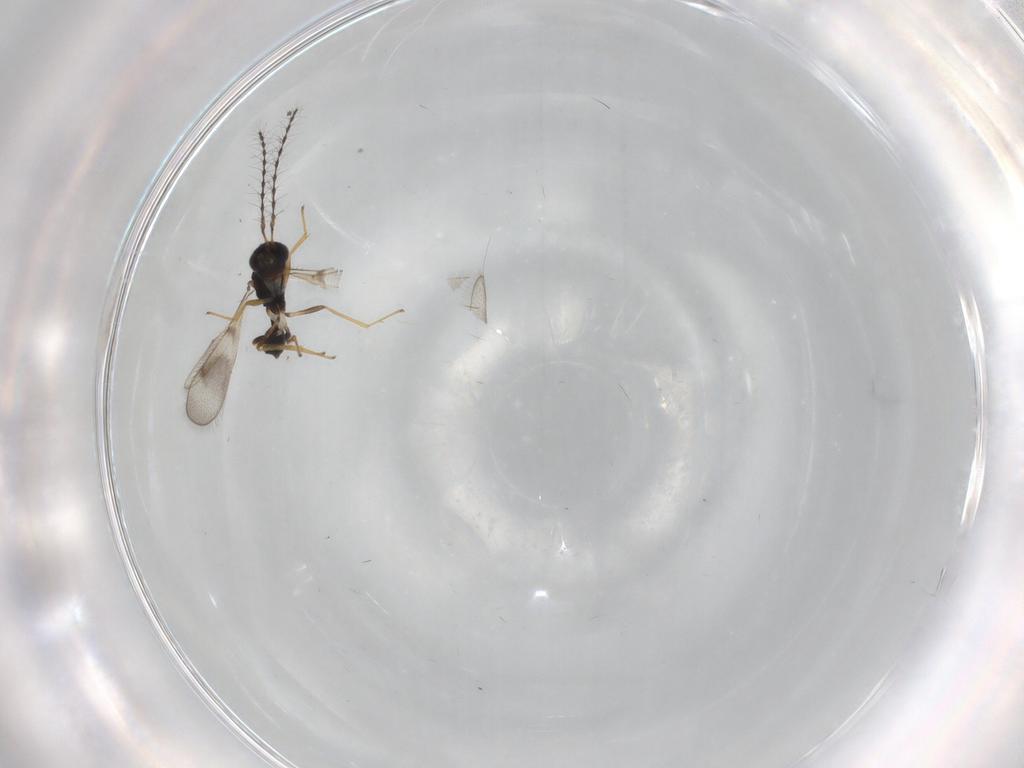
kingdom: Animalia
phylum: Arthropoda
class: Insecta
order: Hymenoptera
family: Diparidae
